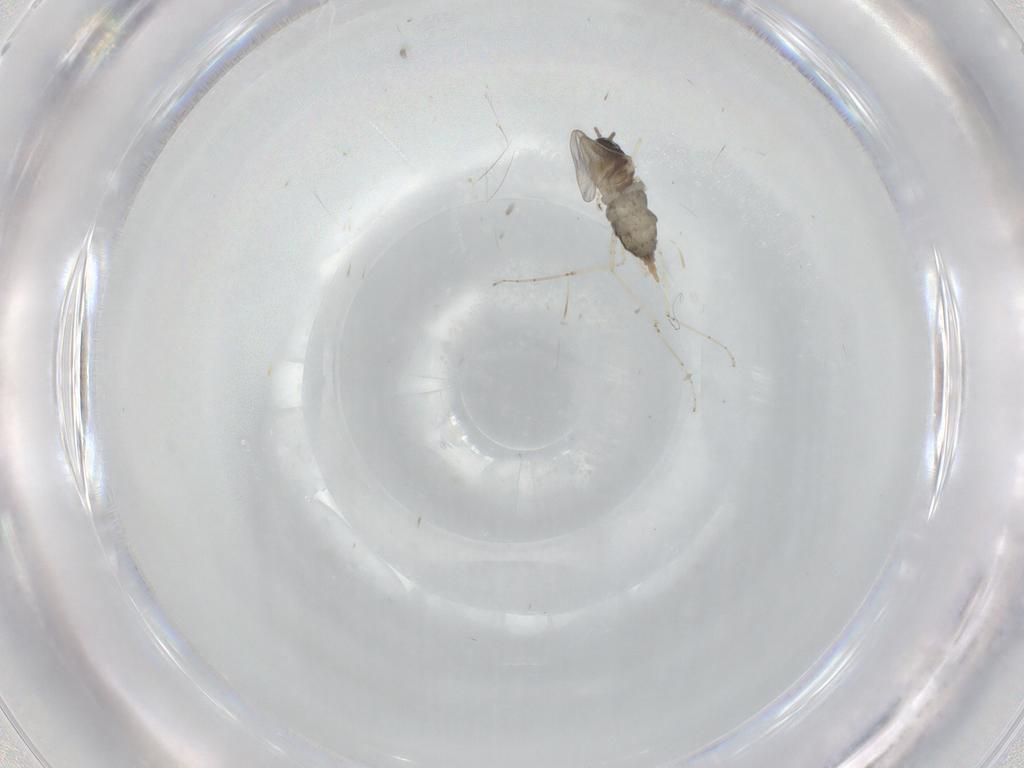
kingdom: Animalia
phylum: Arthropoda
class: Insecta
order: Diptera
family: Cecidomyiidae
